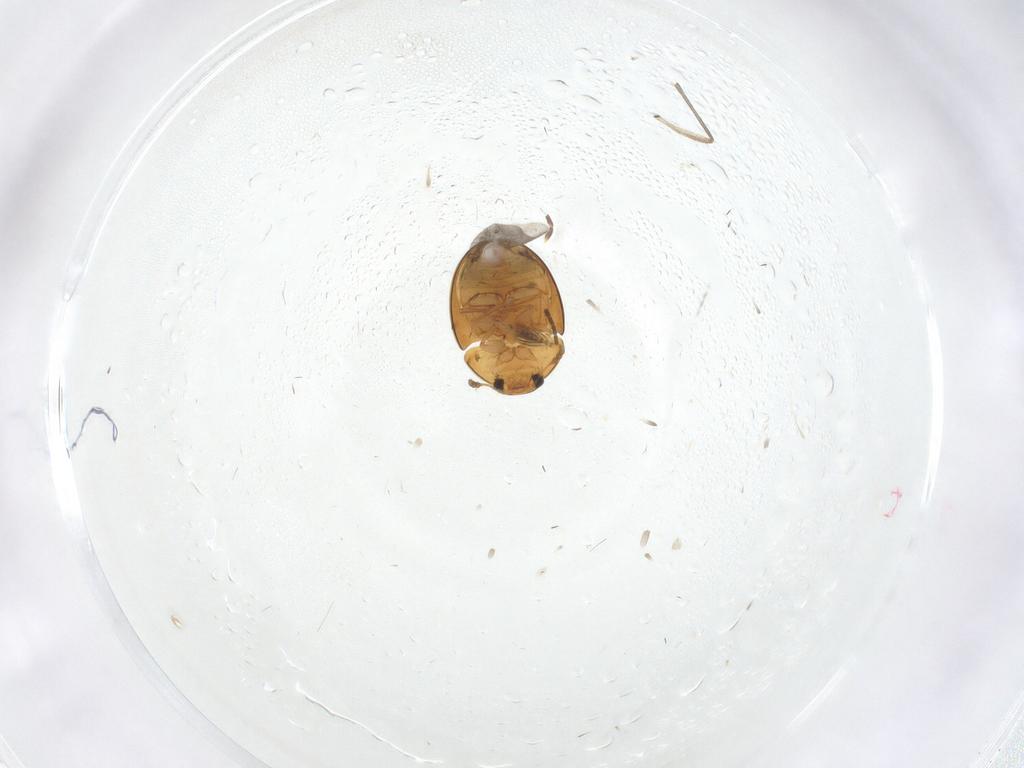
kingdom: Animalia
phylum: Arthropoda
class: Insecta
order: Coleoptera
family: Phalacridae
